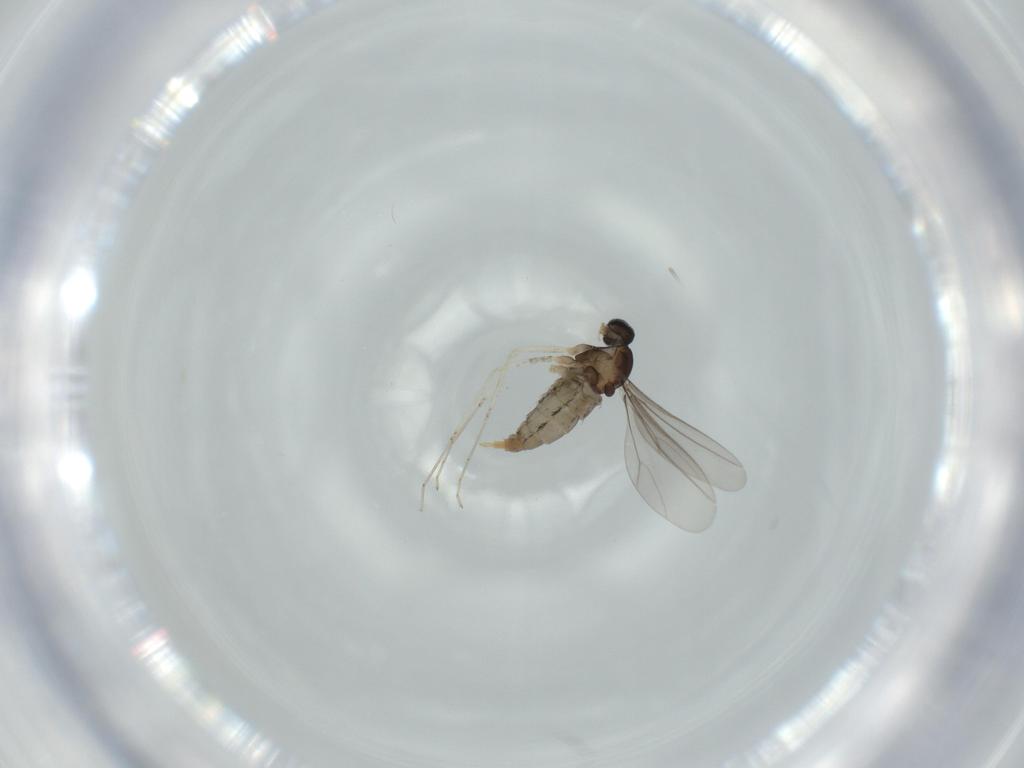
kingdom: Animalia
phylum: Arthropoda
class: Insecta
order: Diptera
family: Cecidomyiidae
